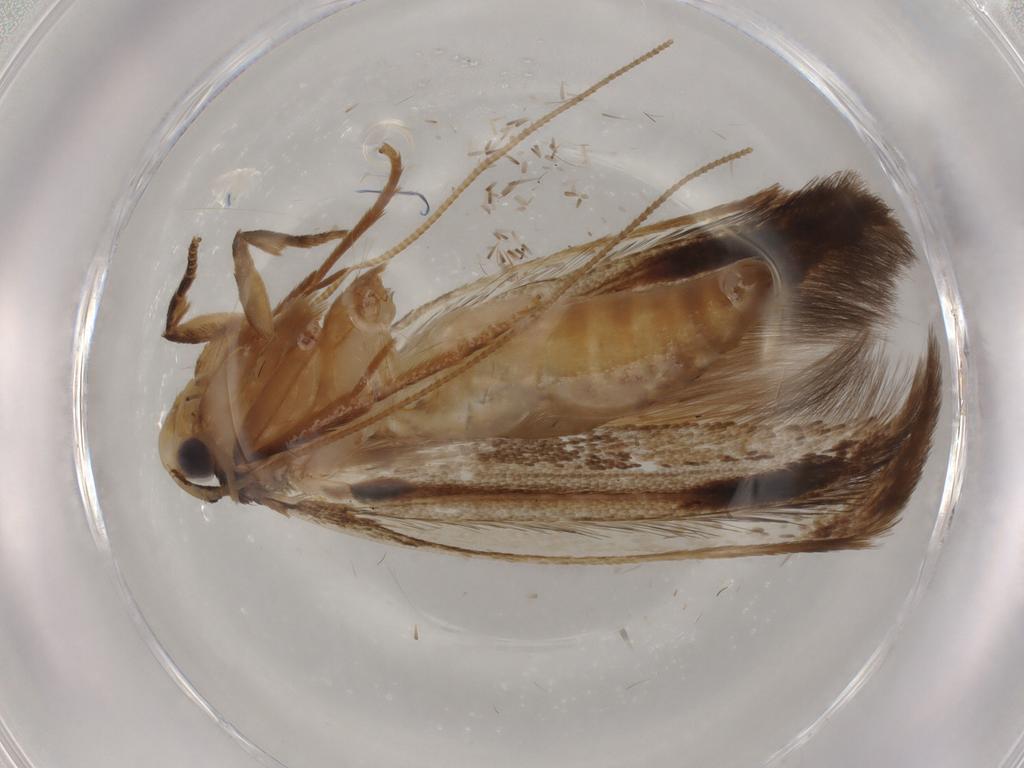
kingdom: Animalia
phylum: Arthropoda
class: Insecta
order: Lepidoptera
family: Tineidae
